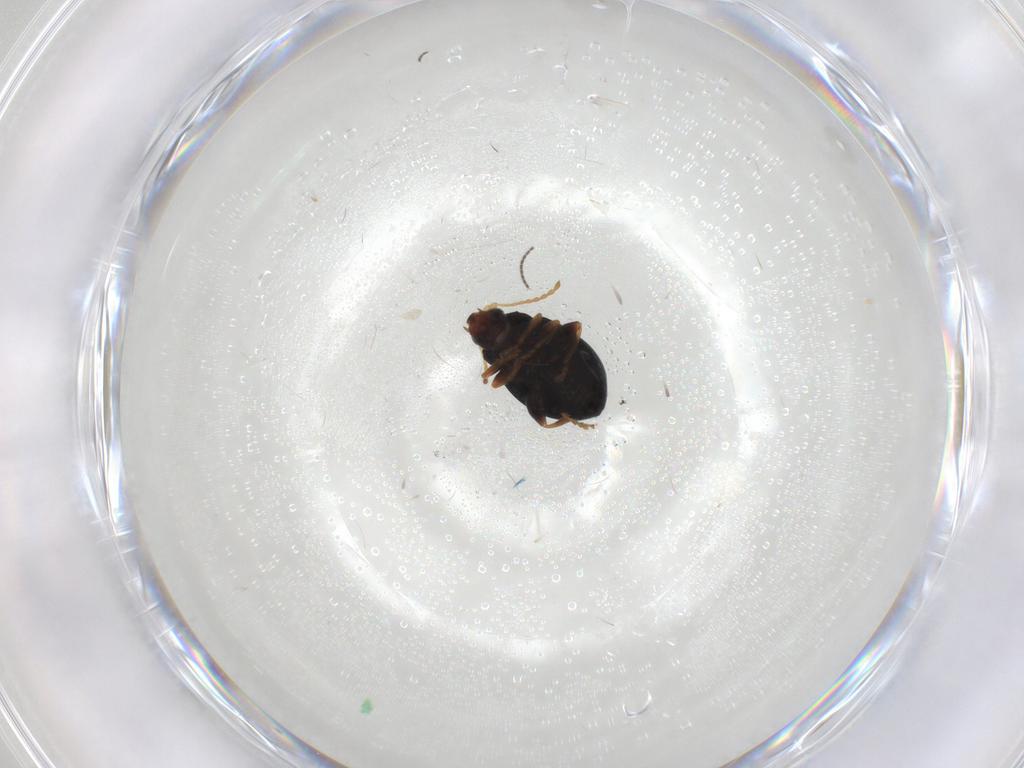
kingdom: Animalia
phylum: Arthropoda
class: Insecta
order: Coleoptera
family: Chrysomelidae
